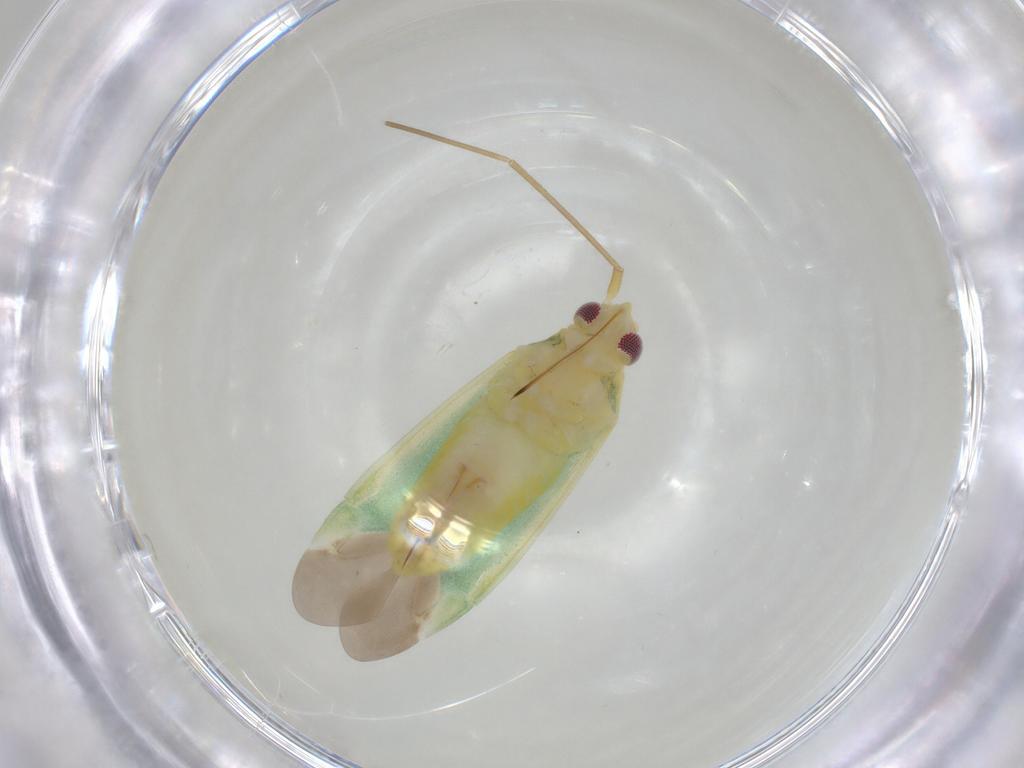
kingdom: Animalia
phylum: Arthropoda
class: Insecta
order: Hemiptera
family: Miridae
